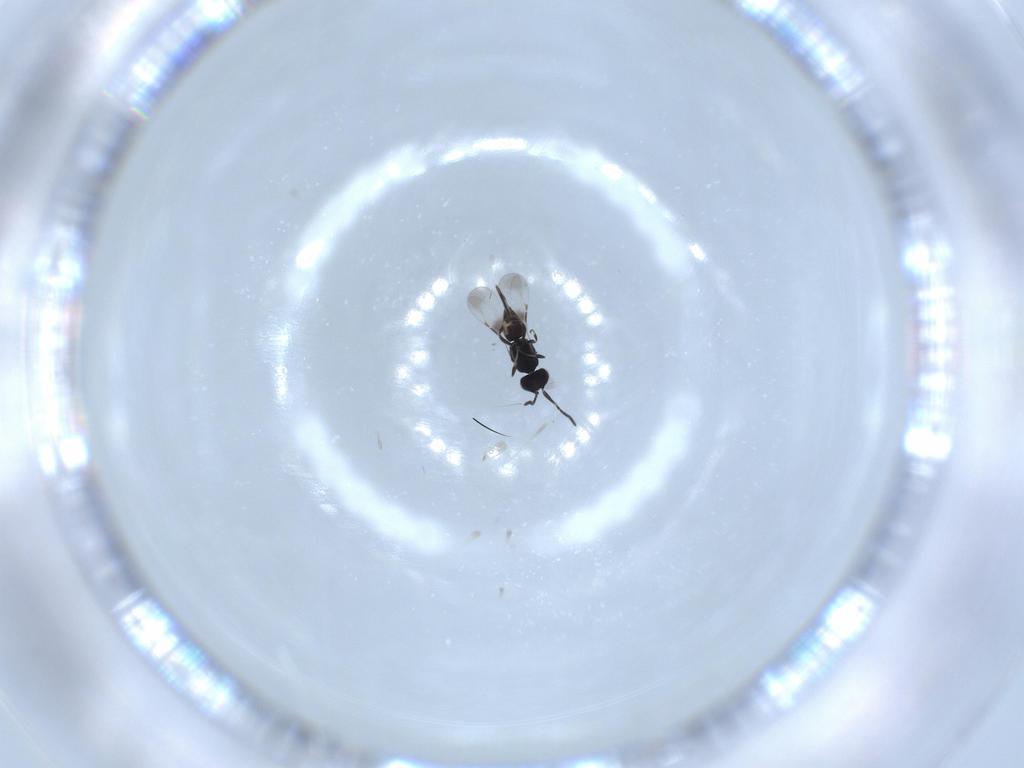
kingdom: Animalia
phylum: Arthropoda
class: Insecta
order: Hymenoptera
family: Ceraphronidae
